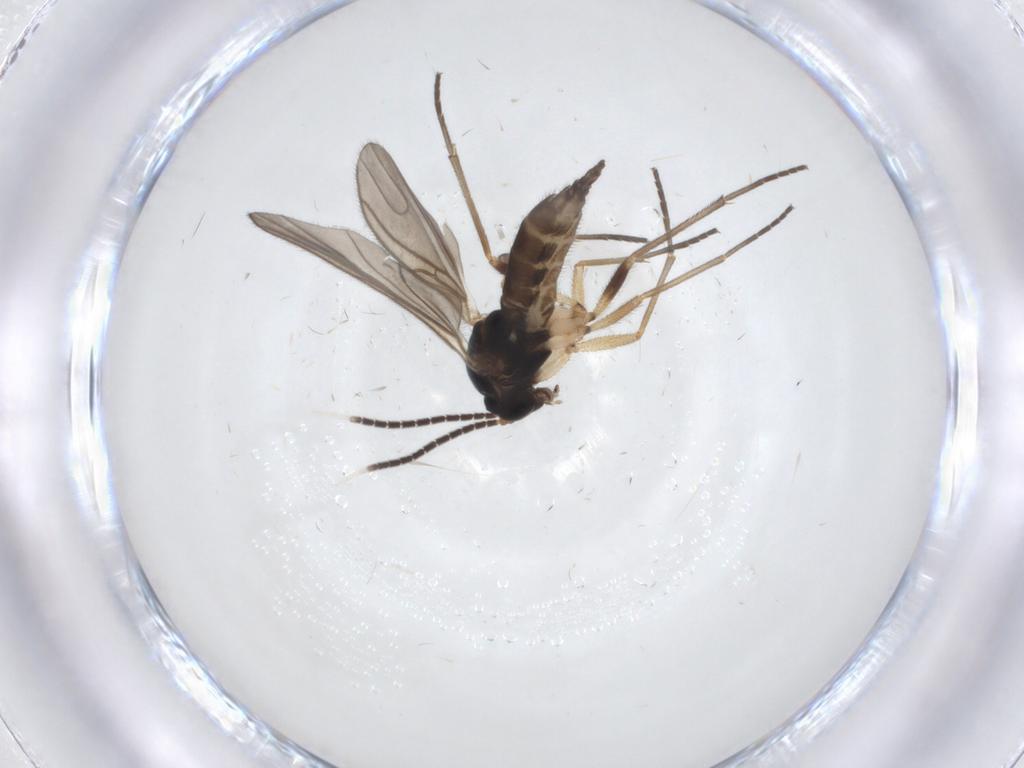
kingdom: Animalia
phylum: Arthropoda
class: Insecta
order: Diptera
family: Sciaridae
